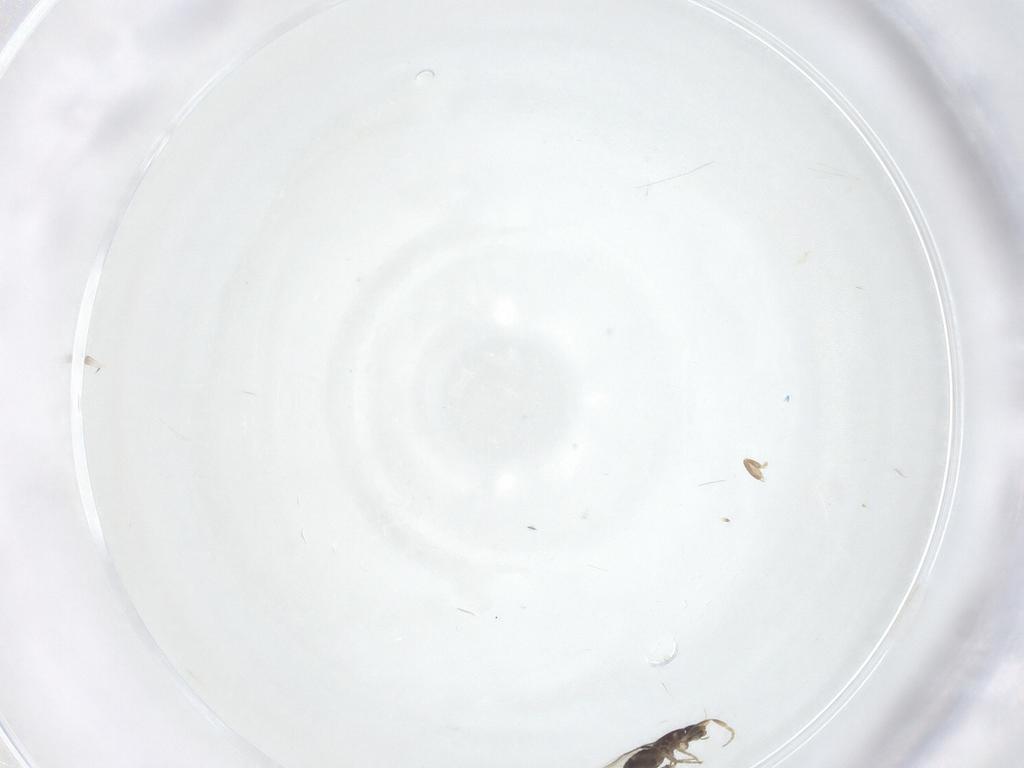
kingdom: Animalia
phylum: Arthropoda
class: Insecta
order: Diptera
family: Phoridae
